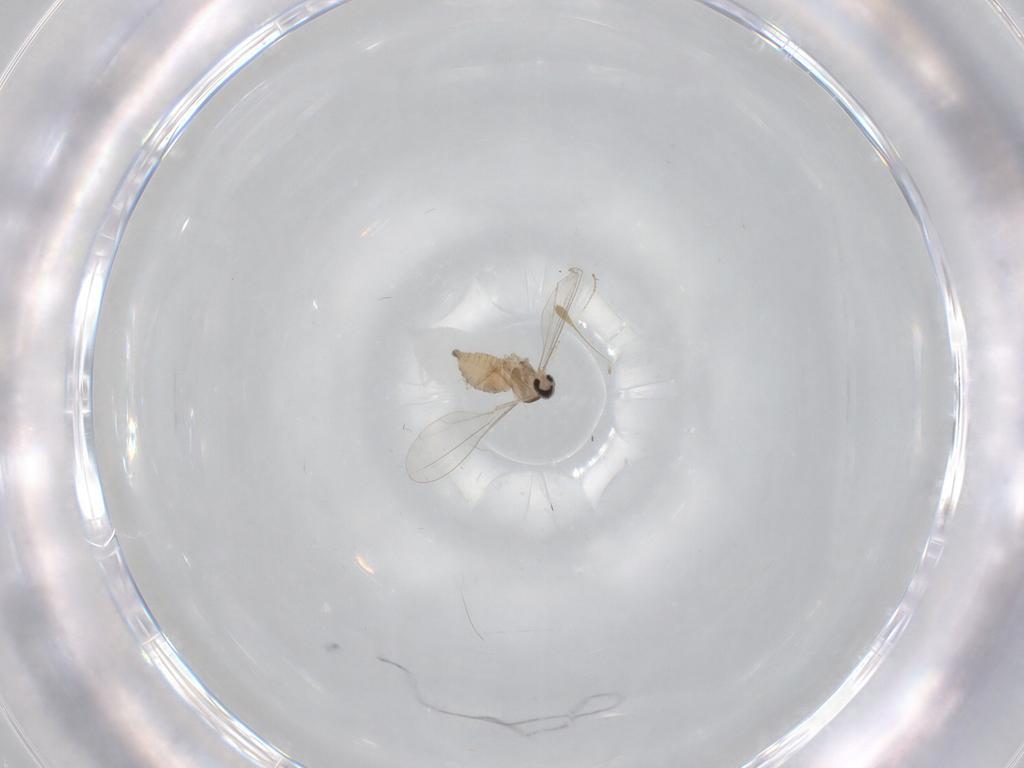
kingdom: Animalia
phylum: Arthropoda
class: Insecta
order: Diptera
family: Cecidomyiidae
